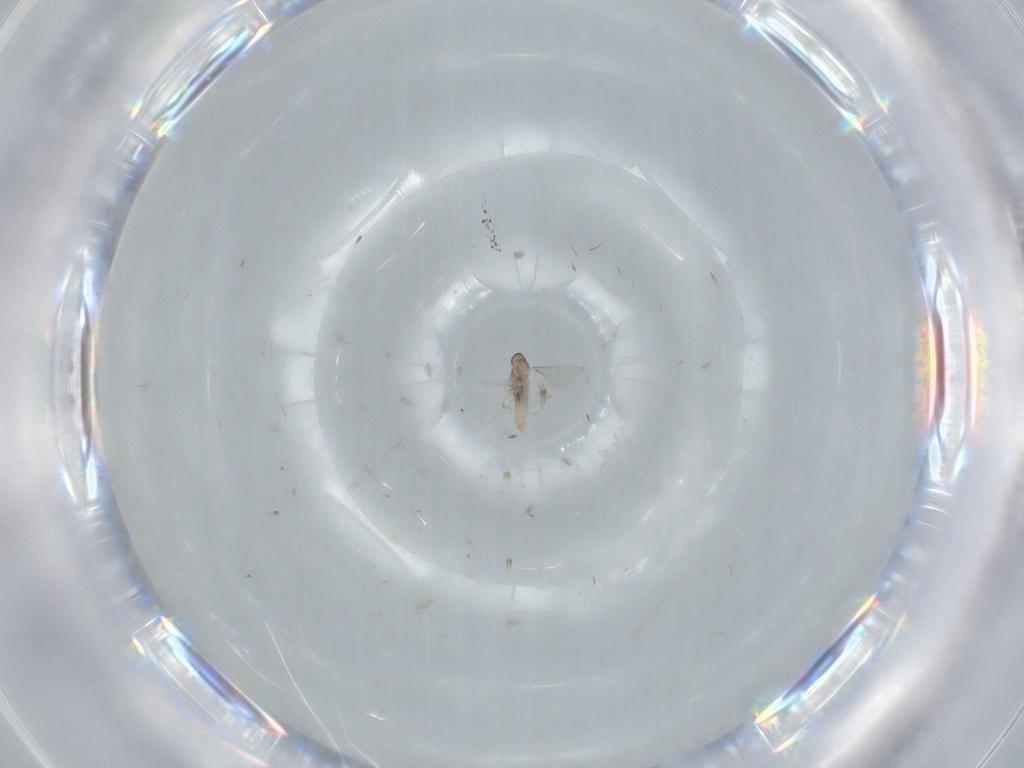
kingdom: Animalia
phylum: Arthropoda
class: Insecta
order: Diptera
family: Cecidomyiidae
